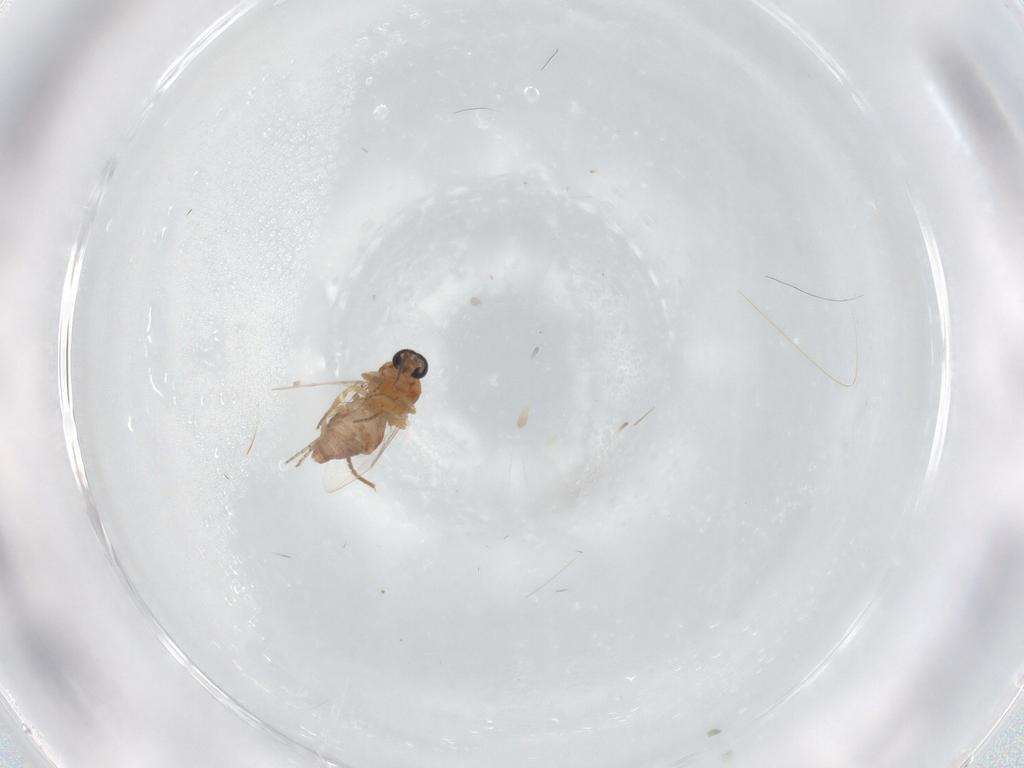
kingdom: Animalia
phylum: Arthropoda
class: Insecta
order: Diptera
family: Ceratopogonidae
